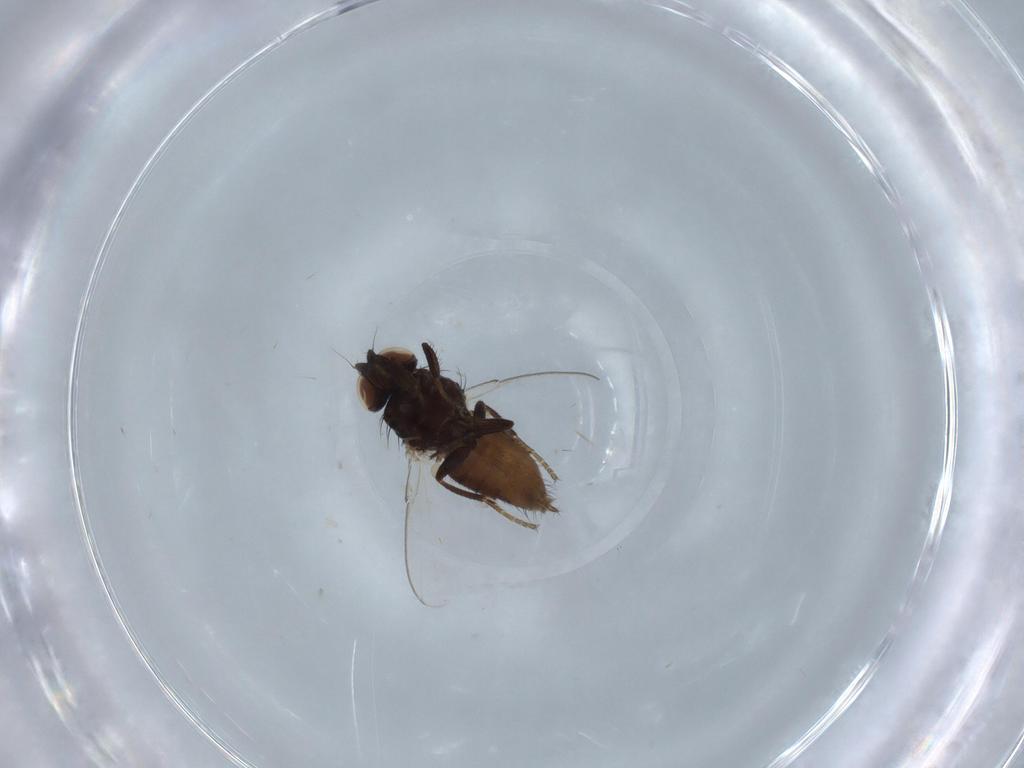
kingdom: Animalia
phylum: Arthropoda
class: Insecta
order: Diptera
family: Milichiidae
